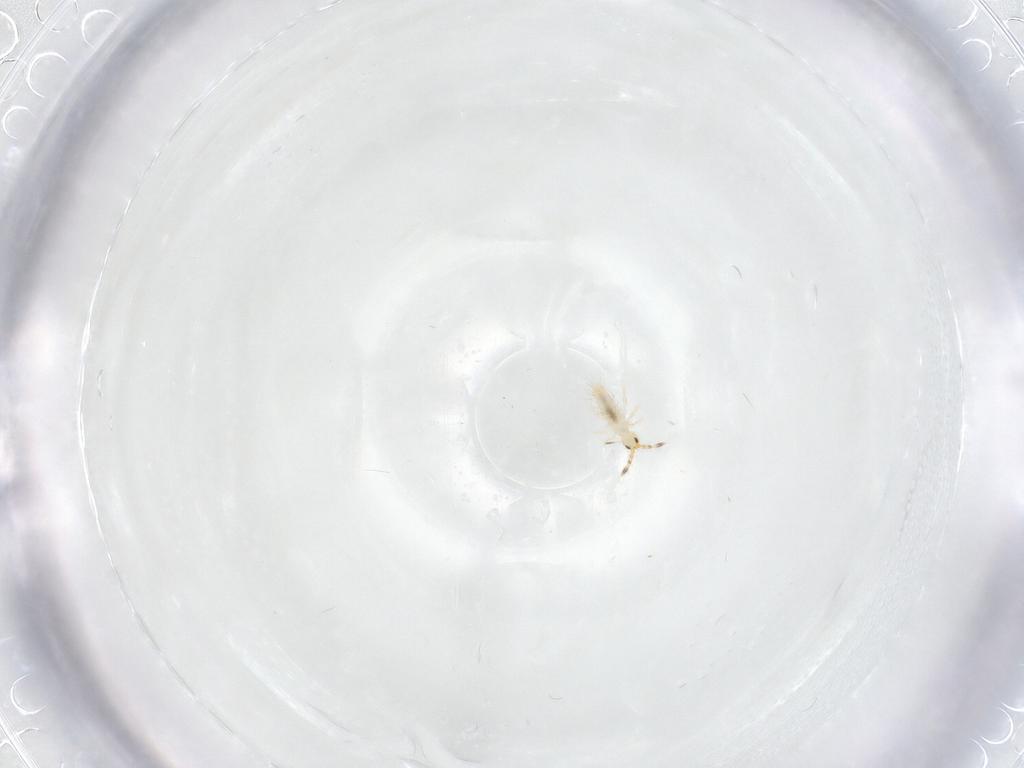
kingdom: Animalia
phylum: Arthropoda
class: Collembola
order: Entomobryomorpha
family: Entomobryidae
